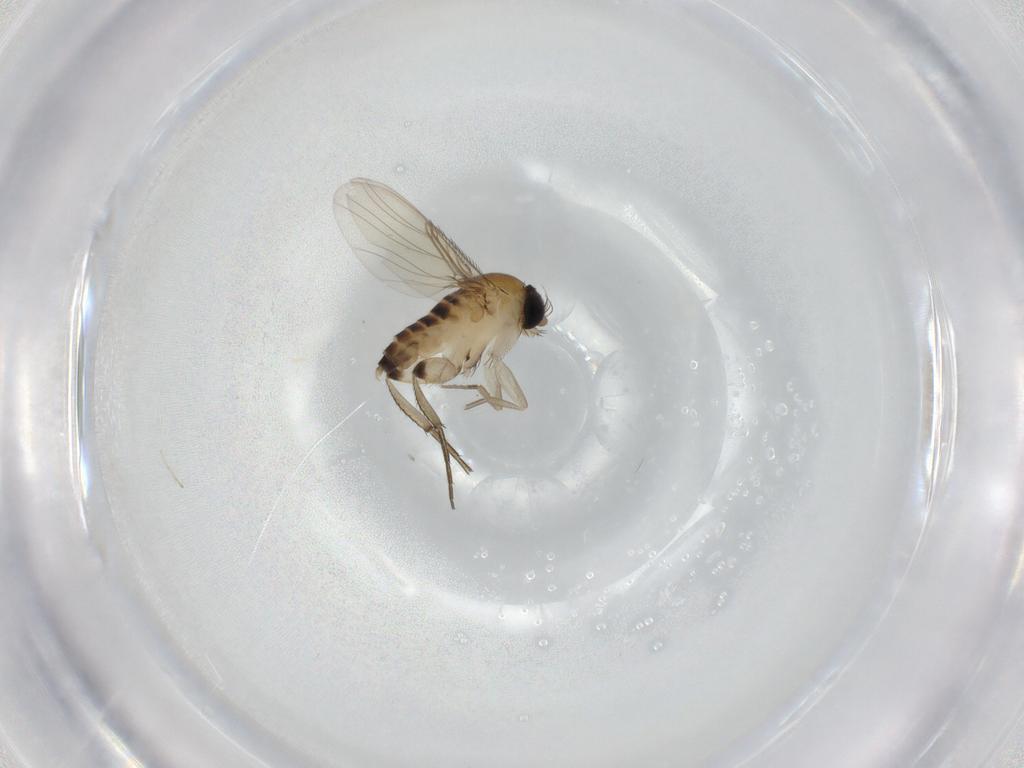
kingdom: Animalia
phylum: Arthropoda
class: Insecta
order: Diptera
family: Phoridae
